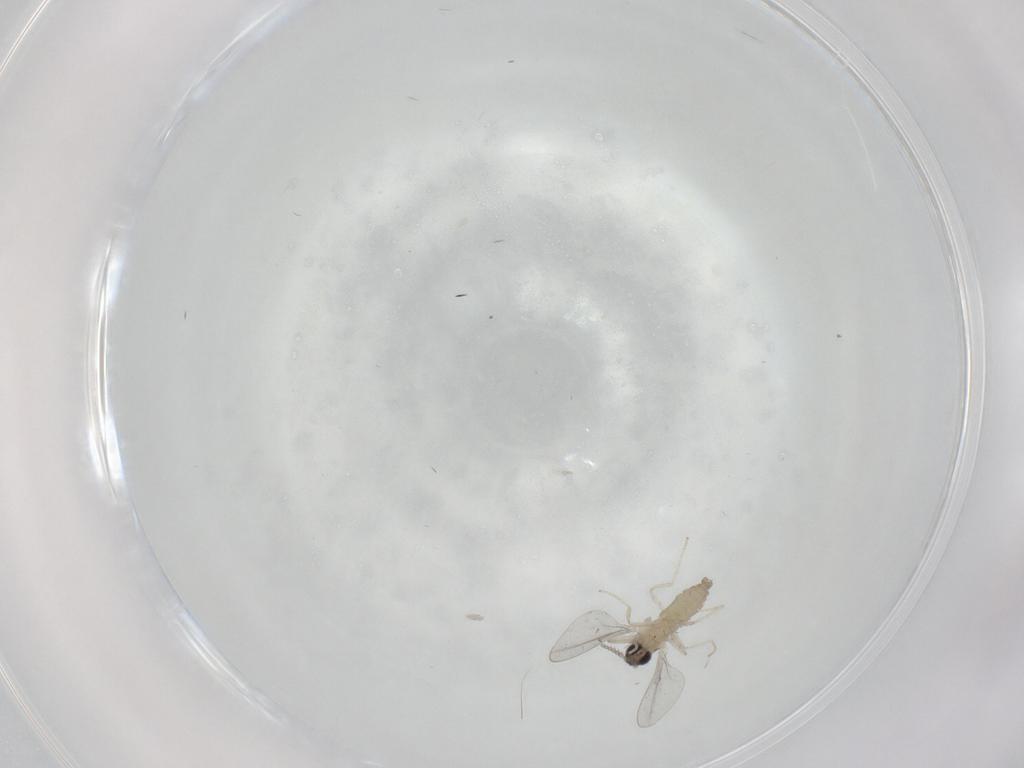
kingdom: Animalia
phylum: Arthropoda
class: Insecta
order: Diptera
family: Cecidomyiidae
